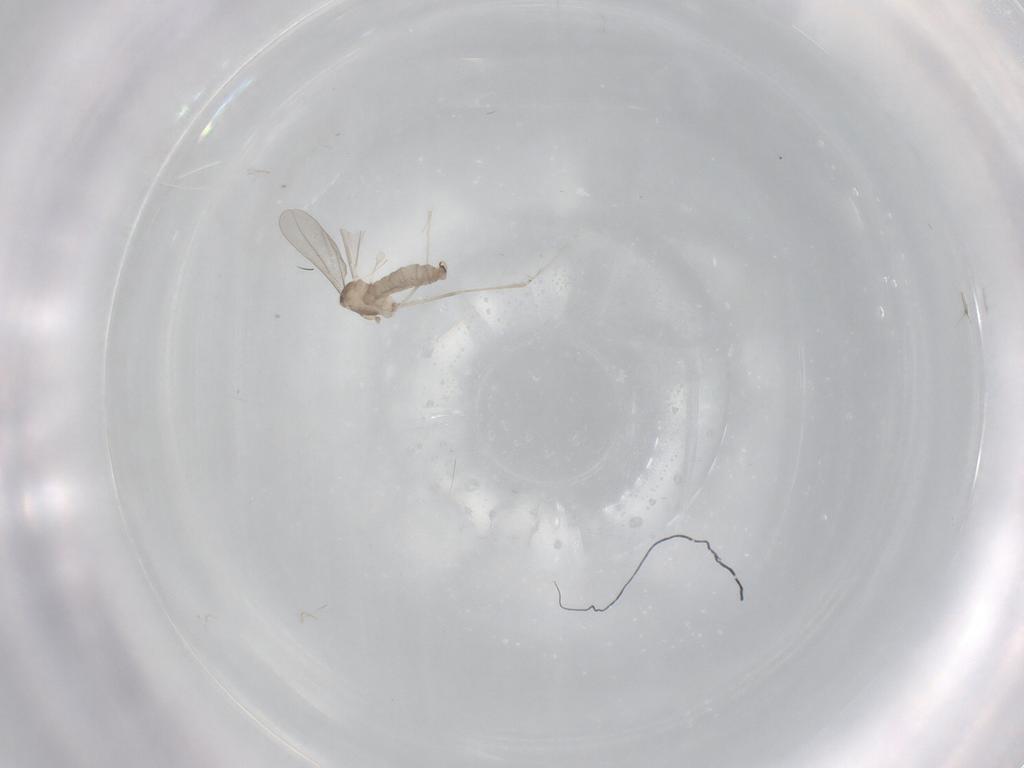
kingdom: Animalia
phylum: Arthropoda
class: Insecta
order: Diptera
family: Cecidomyiidae
